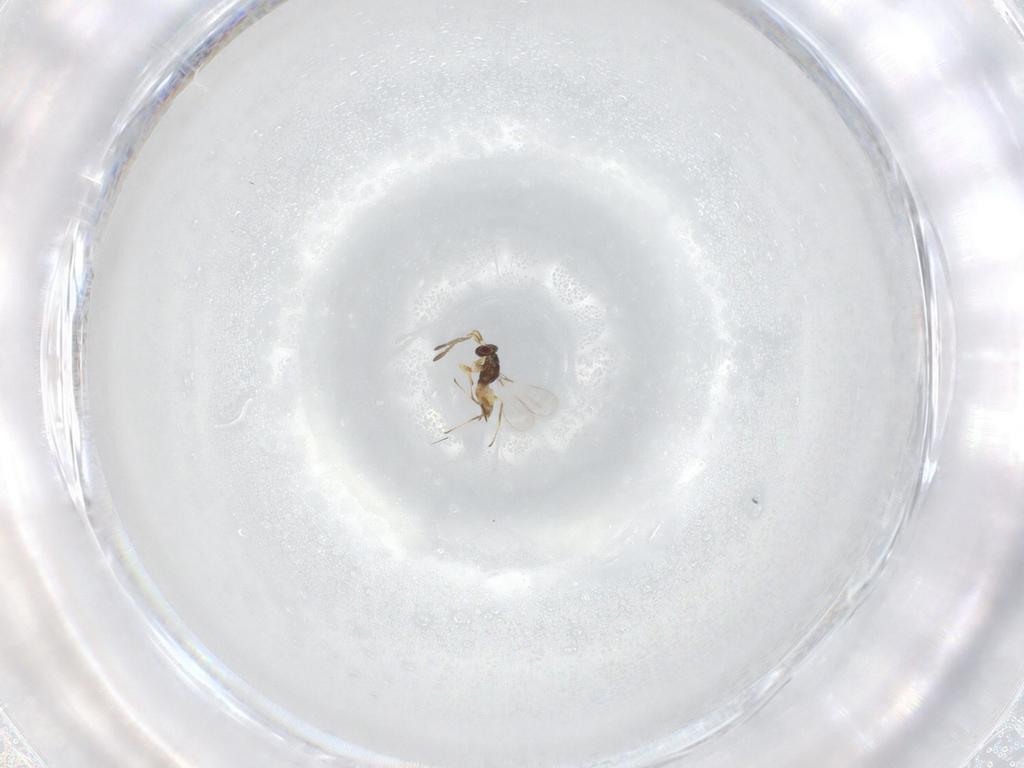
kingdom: Animalia
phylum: Arthropoda
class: Insecta
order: Hymenoptera
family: Mymaridae
